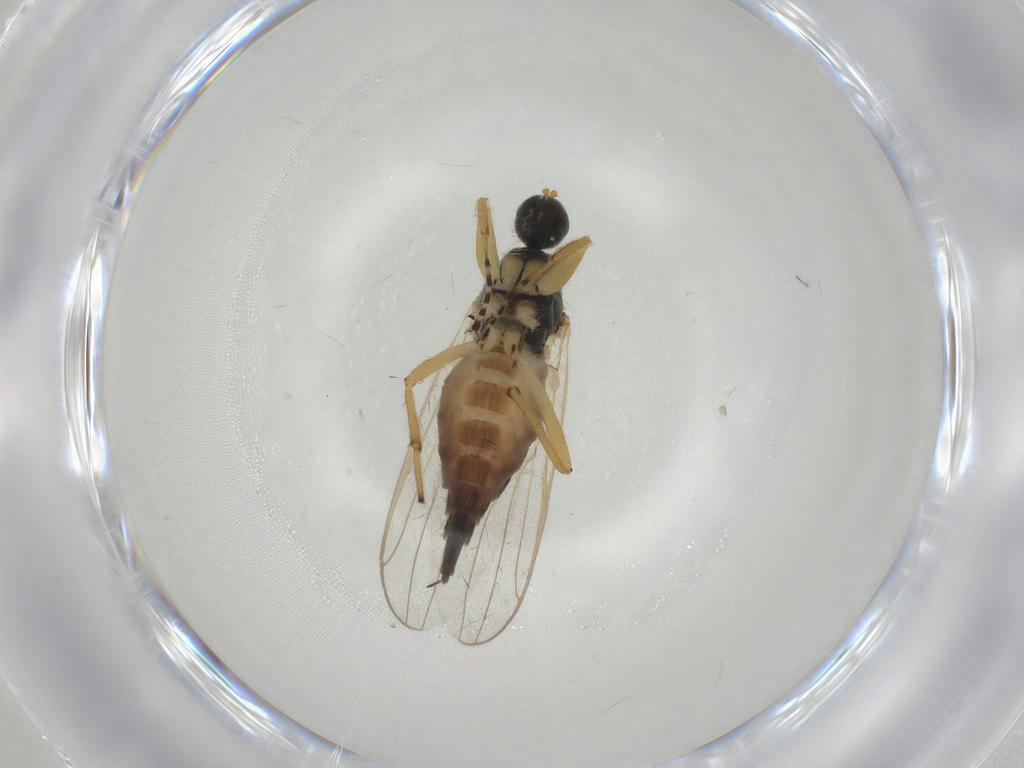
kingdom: Animalia
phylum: Arthropoda
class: Insecta
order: Diptera
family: Hybotidae
